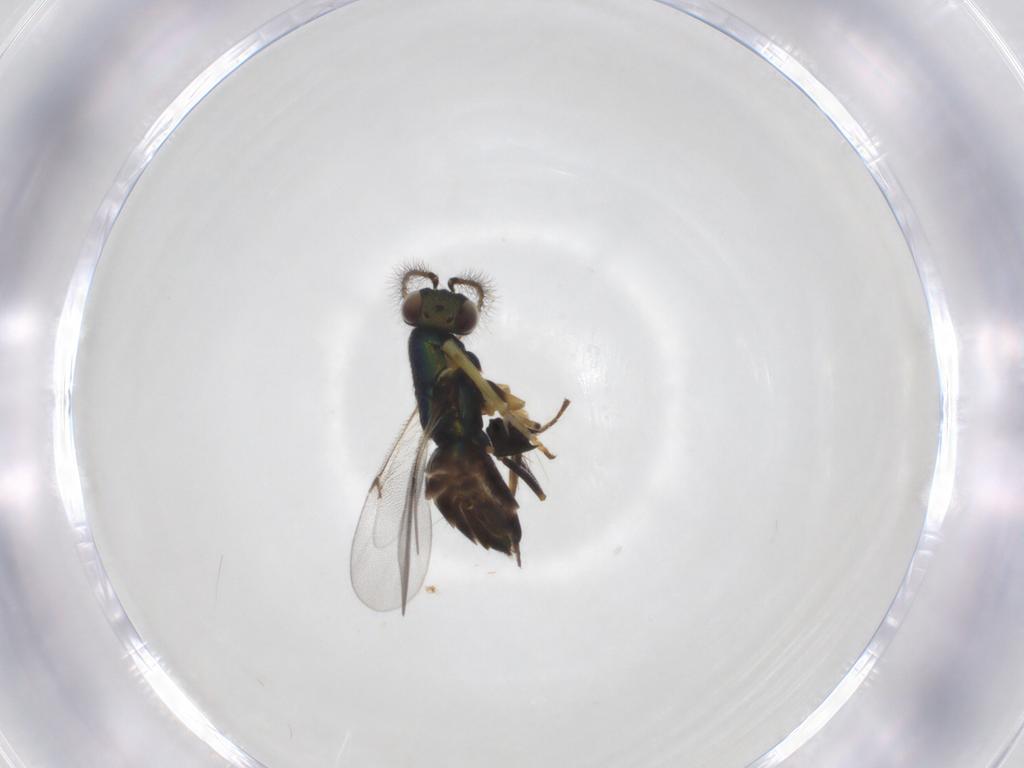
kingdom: Animalia
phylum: Arthropoda
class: Insecta
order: Hymenoptera
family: Encyrtidae
